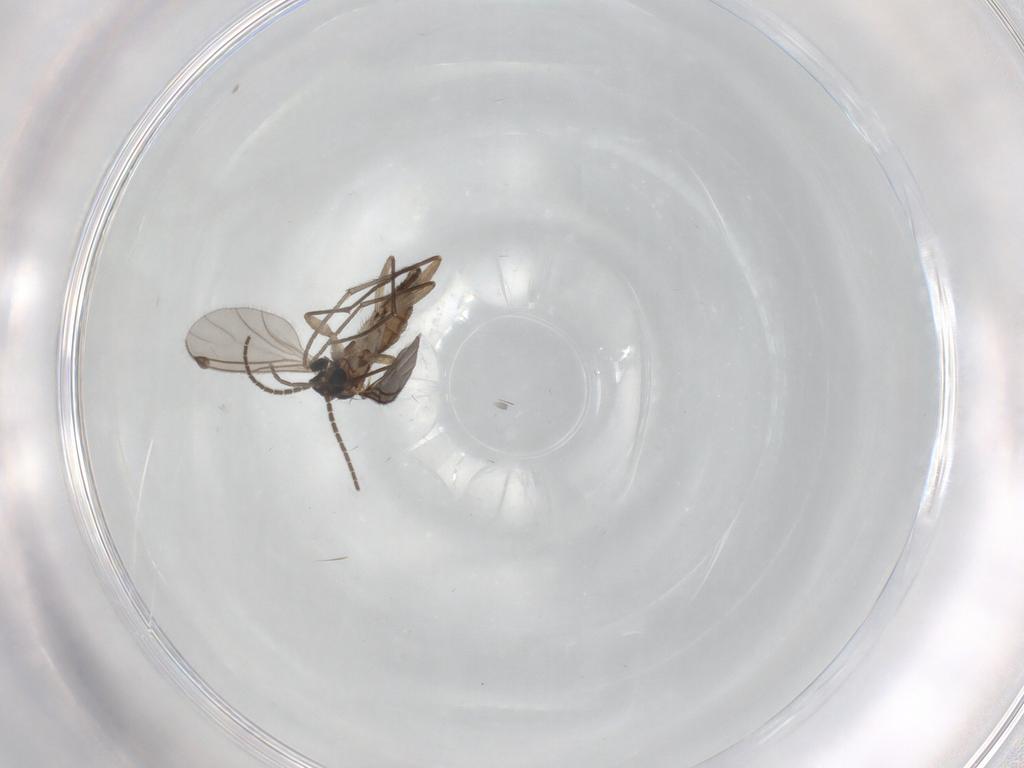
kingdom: Animalia
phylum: Arthropoda
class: Insecta
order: Diptera
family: Sciaridae
